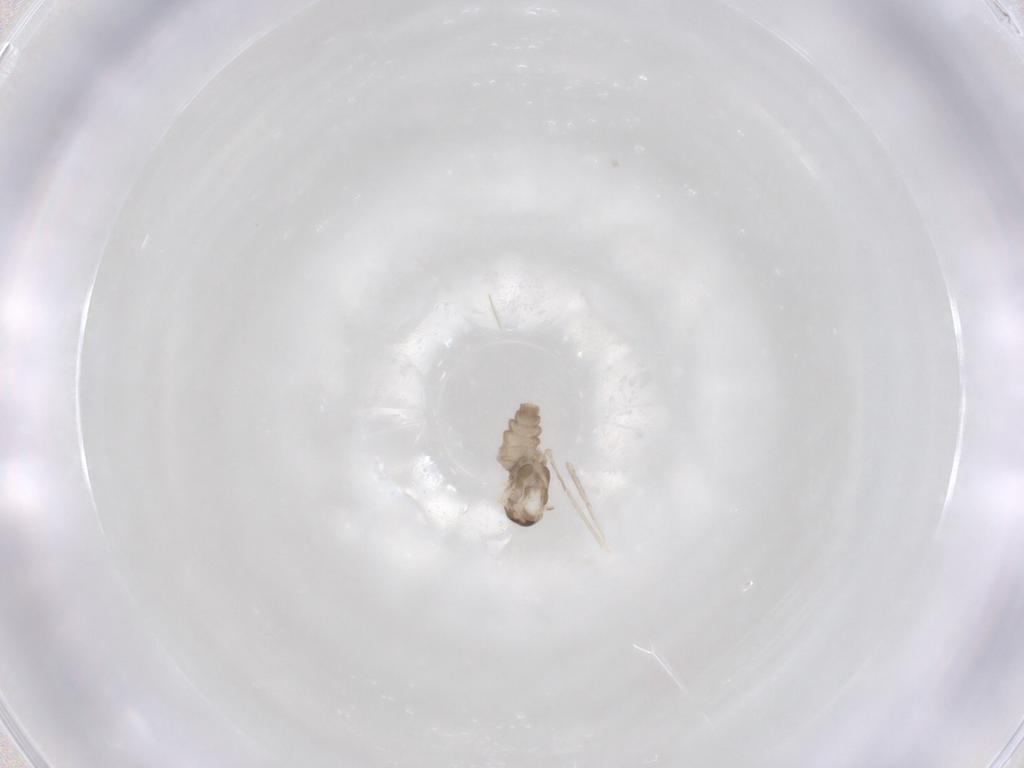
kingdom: Animalia
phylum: Arthropoda
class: Insecta
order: Diptera
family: Cecidomyiidae
